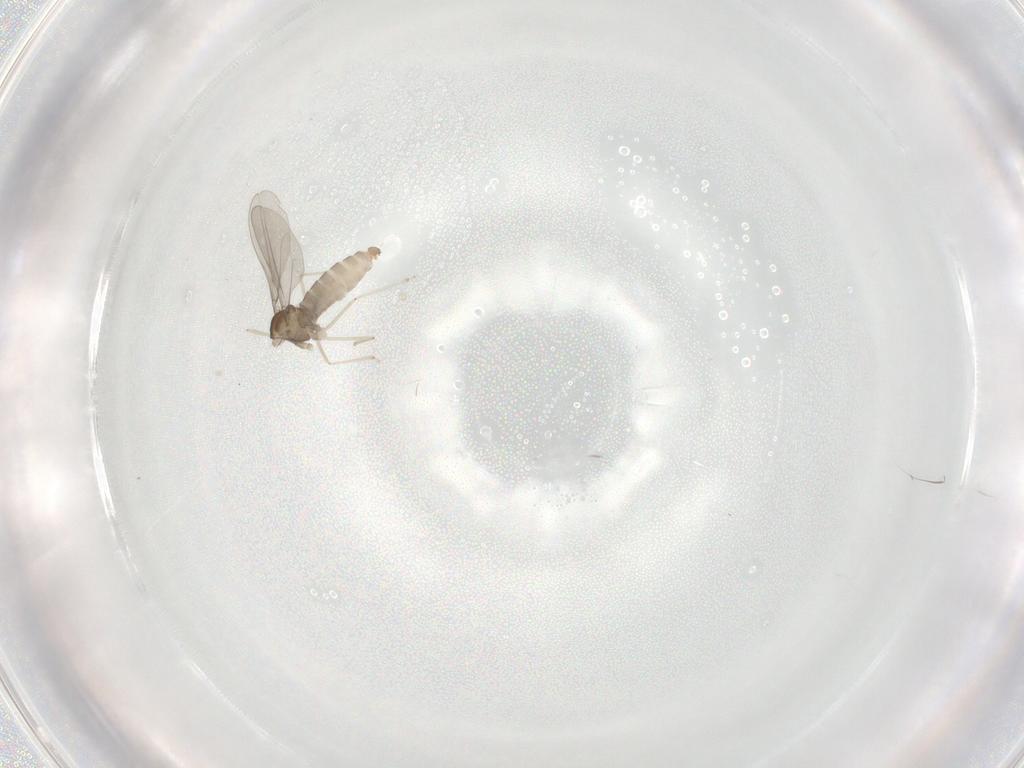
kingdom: Animalia
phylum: Arthropoda
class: Insecta
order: Diptera
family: Cecidomyiidae
